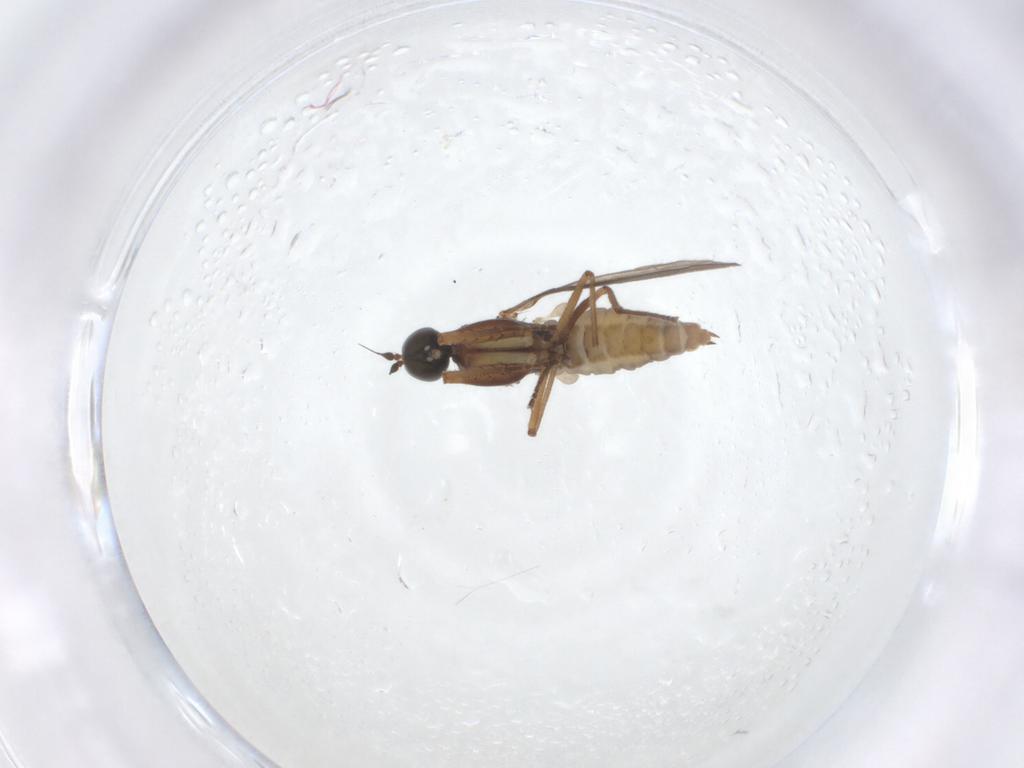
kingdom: Animalia
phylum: Arthropoda
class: Insecta
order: Diptera
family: Empididae
